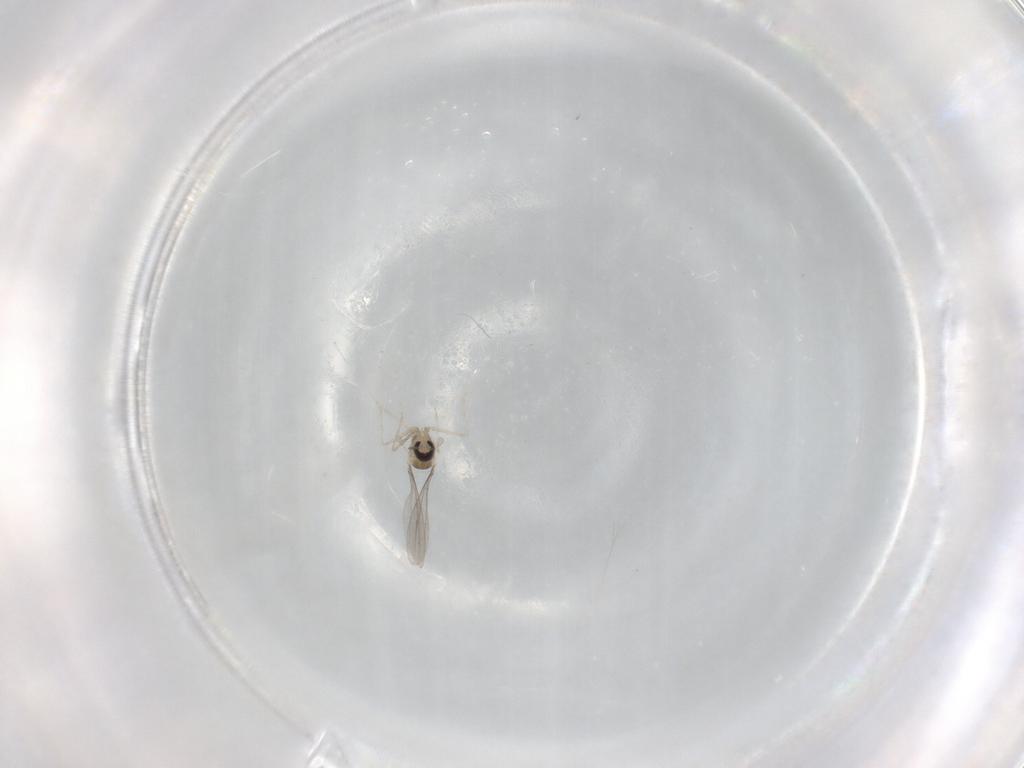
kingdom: Animalia
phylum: Arthropoda
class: Insecta
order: Diptera
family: Cecidomyiidae
